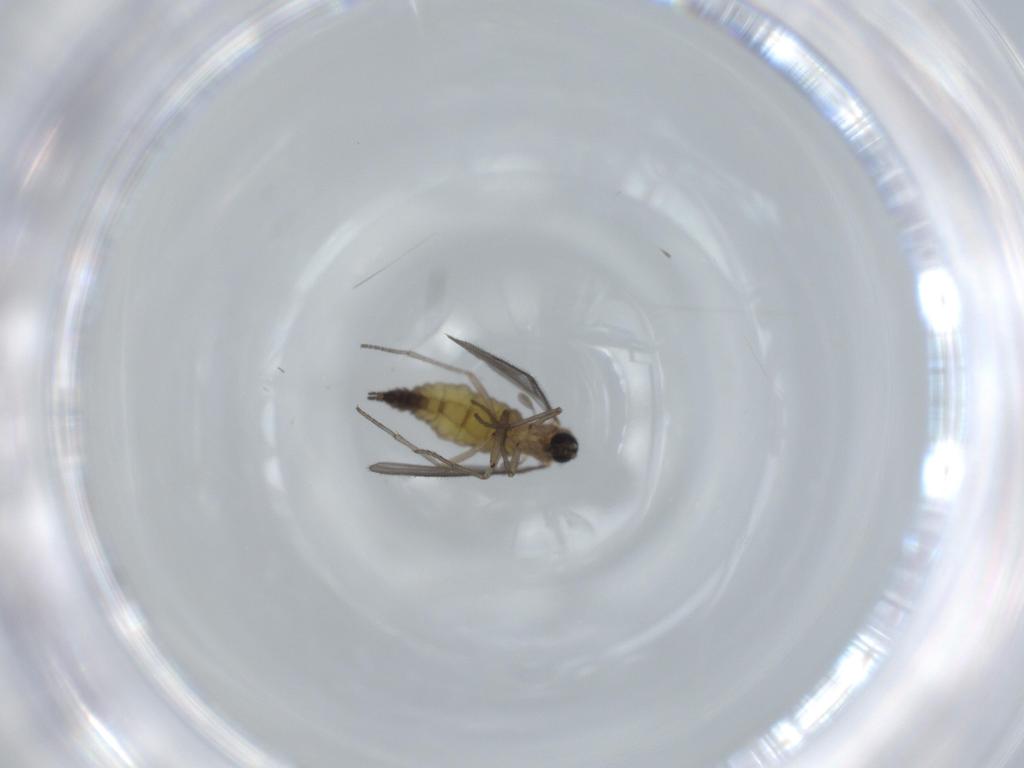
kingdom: Animalia
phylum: Arthropoda
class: Insecta
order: Diptera
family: Sciaridae
